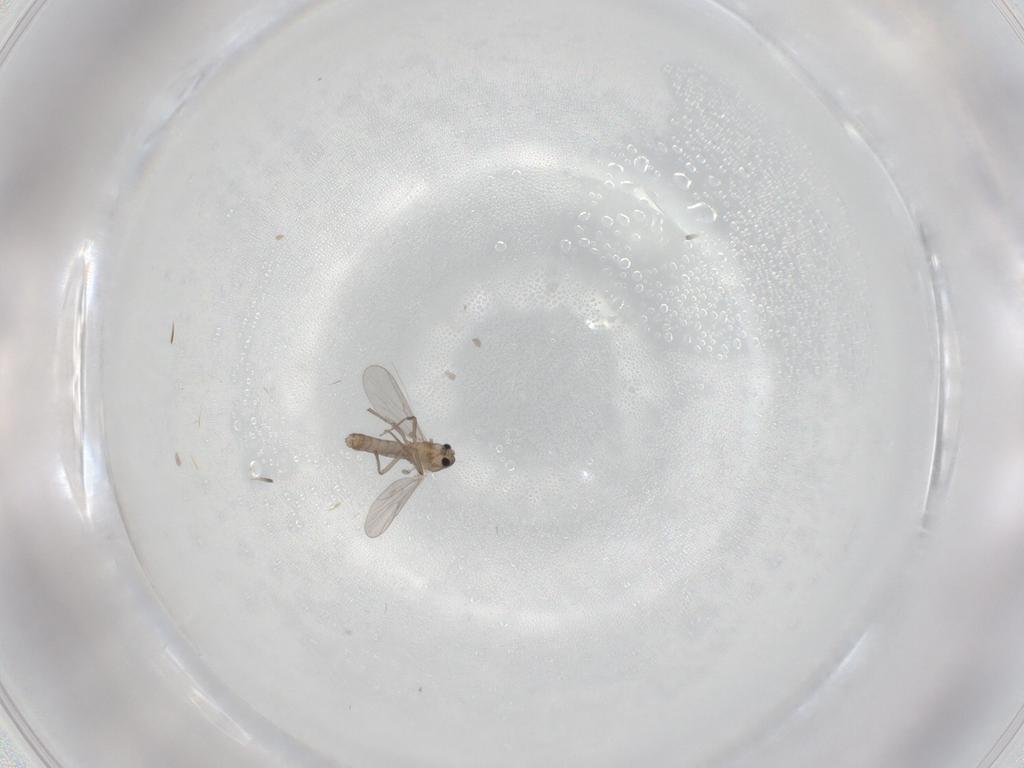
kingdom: Animalia
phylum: Arthropoda
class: Insecta
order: Diptera
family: Chironomidae
